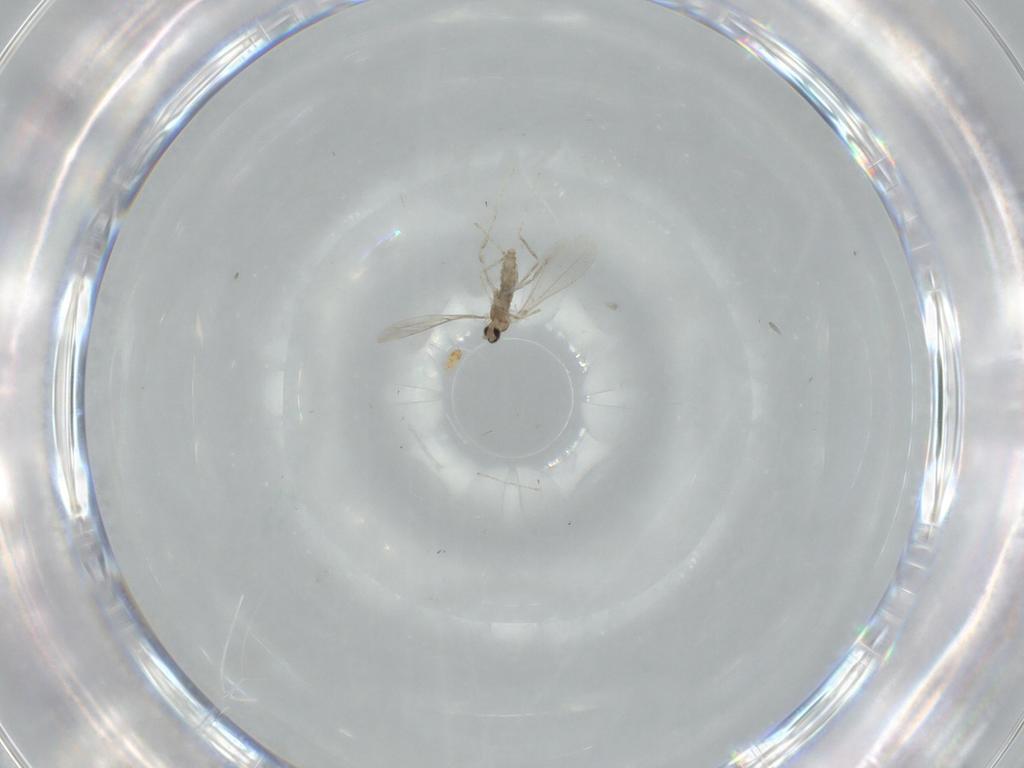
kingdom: Animalia
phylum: Arthropoda
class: Insecta
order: Diptera
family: Cecidomyiidae
